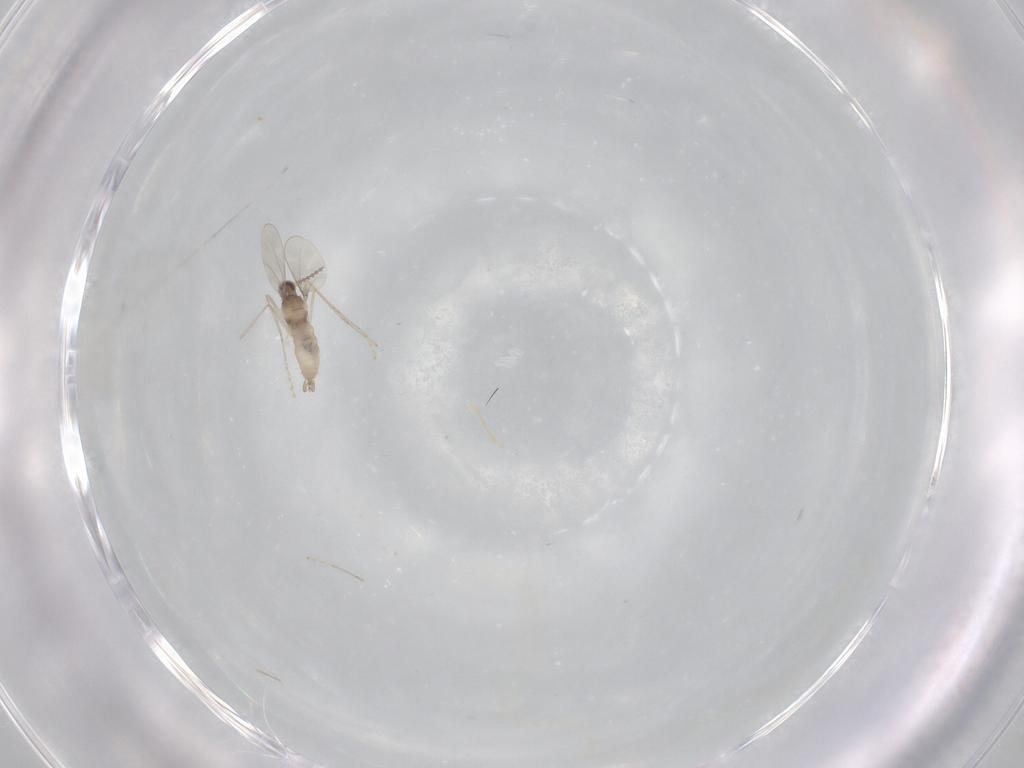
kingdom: Animalia
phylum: Arthropoda
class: Insecta
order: Diptera
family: Cecidomyiidae
